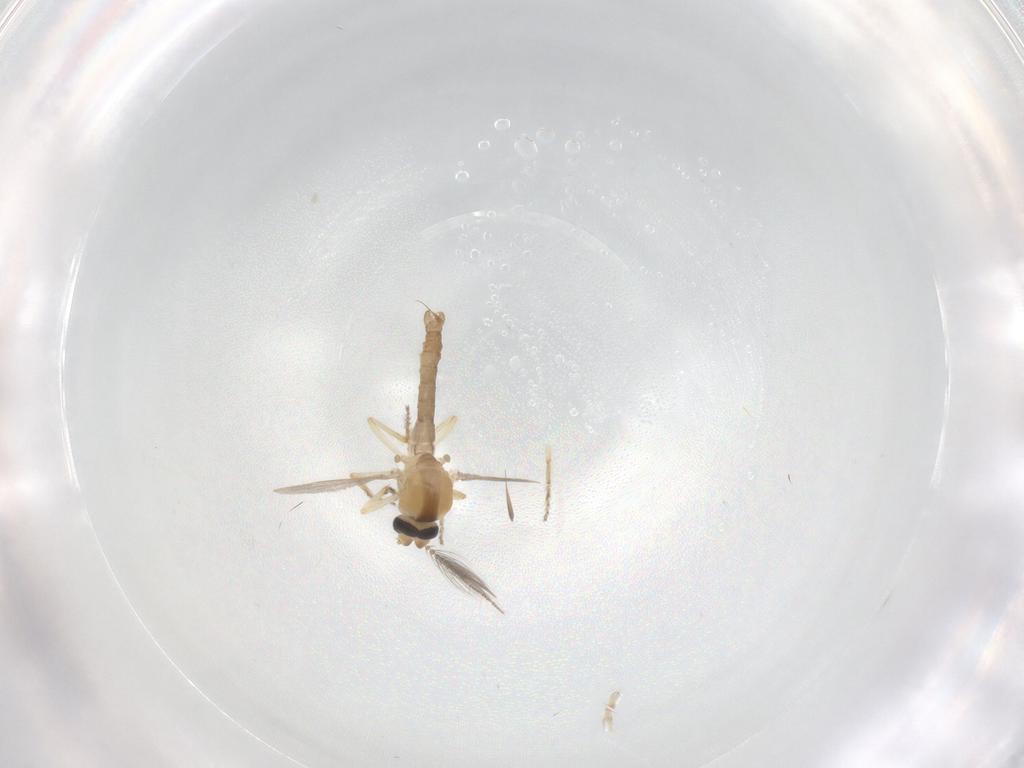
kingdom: Animalia
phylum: Arthropoda
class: Insecta
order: Diptera
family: Ceratopogonidae
